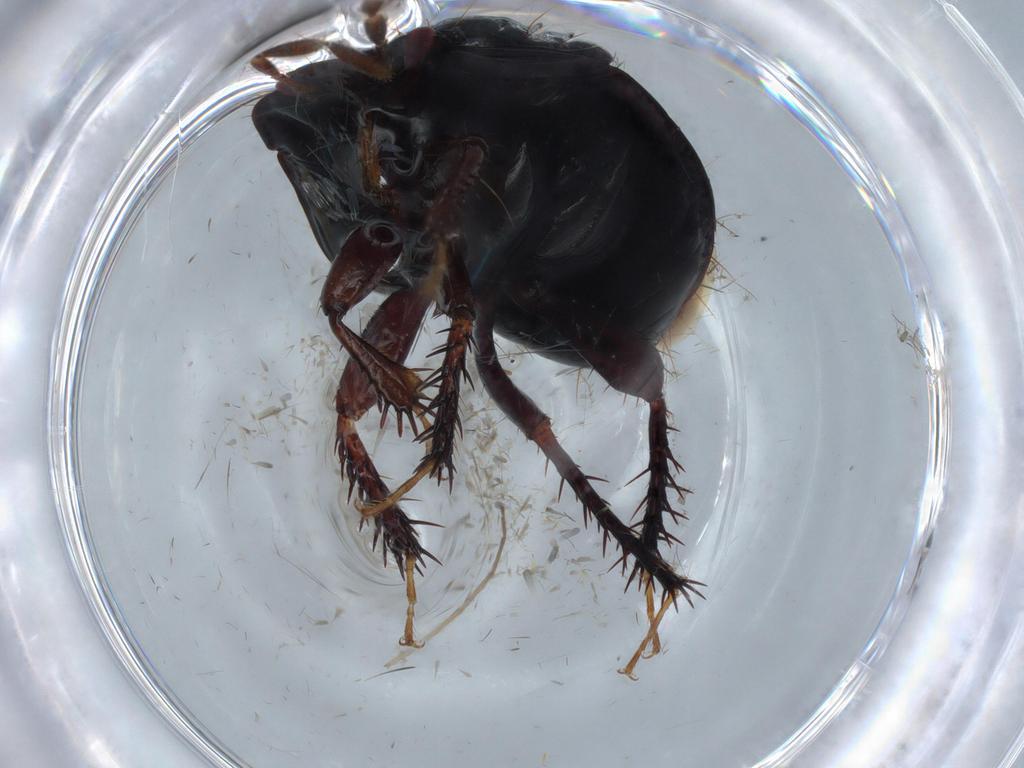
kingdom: Animalia
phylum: Arthropoda
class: Insecta
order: Hemiptera
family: Cydnidae
